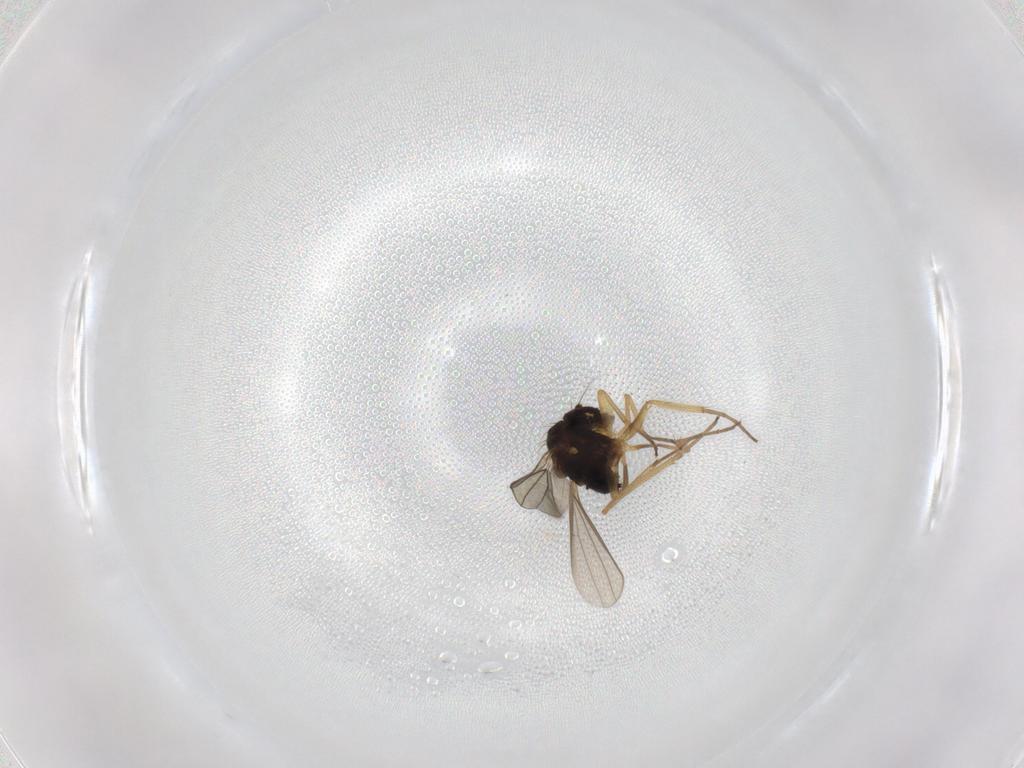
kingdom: Animalia
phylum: Arthropoda
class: Insecta
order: Diptera
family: Dolichopodidae
